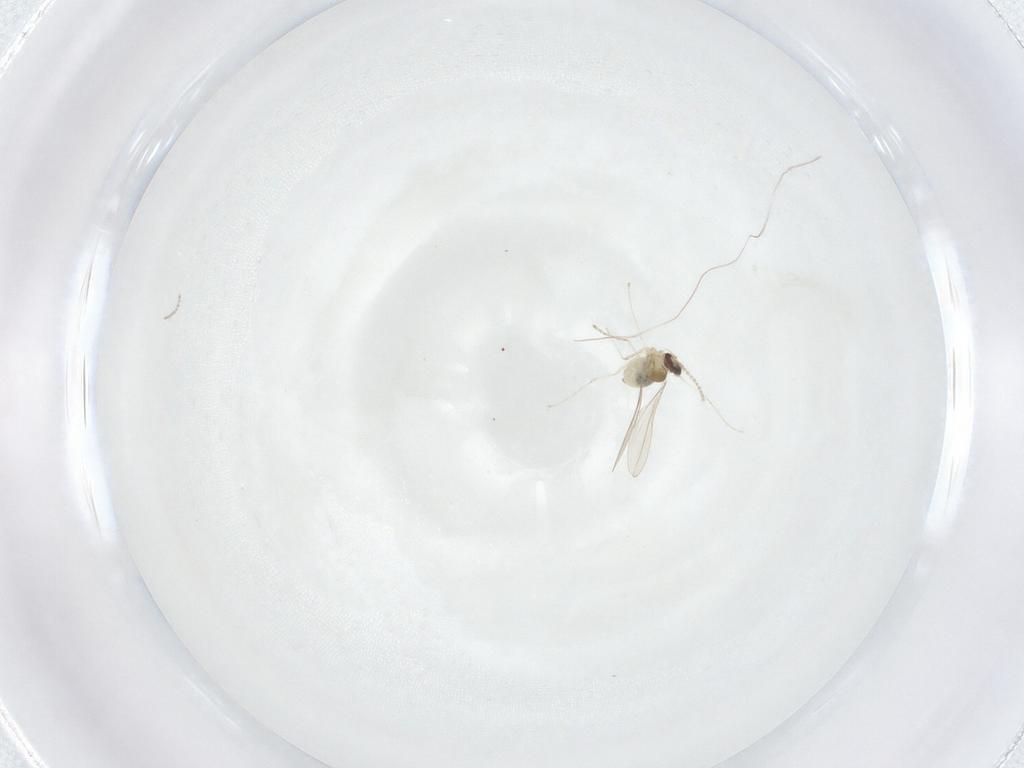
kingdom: Animalia
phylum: Arthropoda
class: Insecta
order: Diptera
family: Cecidomyiidae
